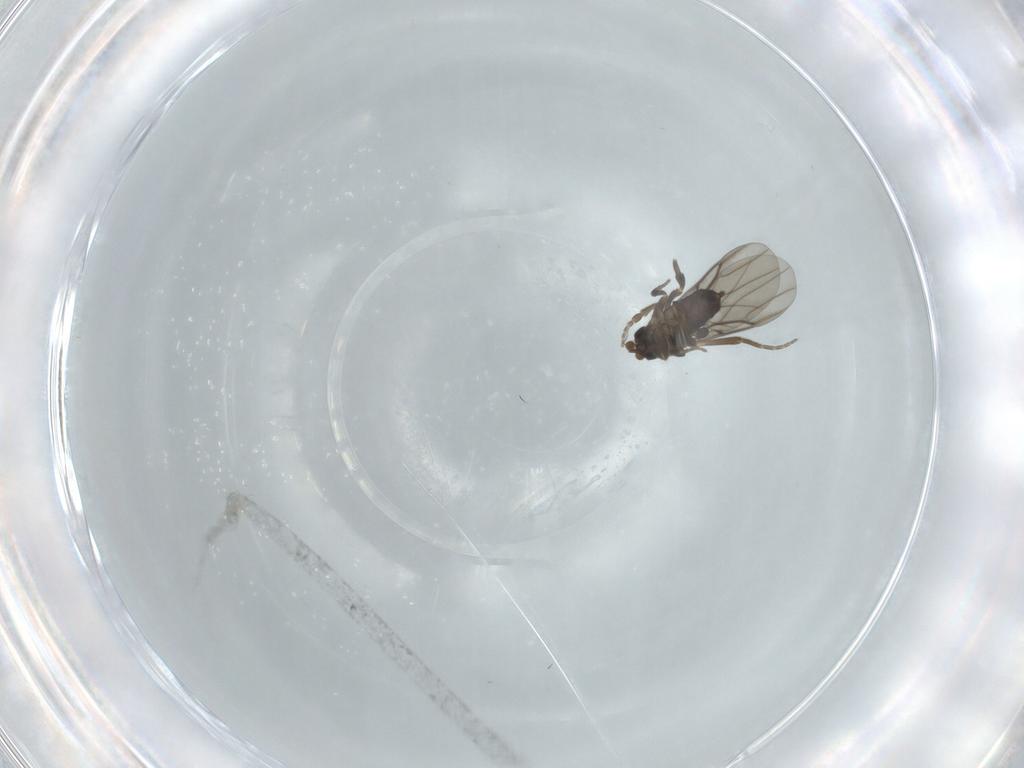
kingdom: Animalia
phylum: Arthropoda
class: Insecta
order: Diptera
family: Phoridae
